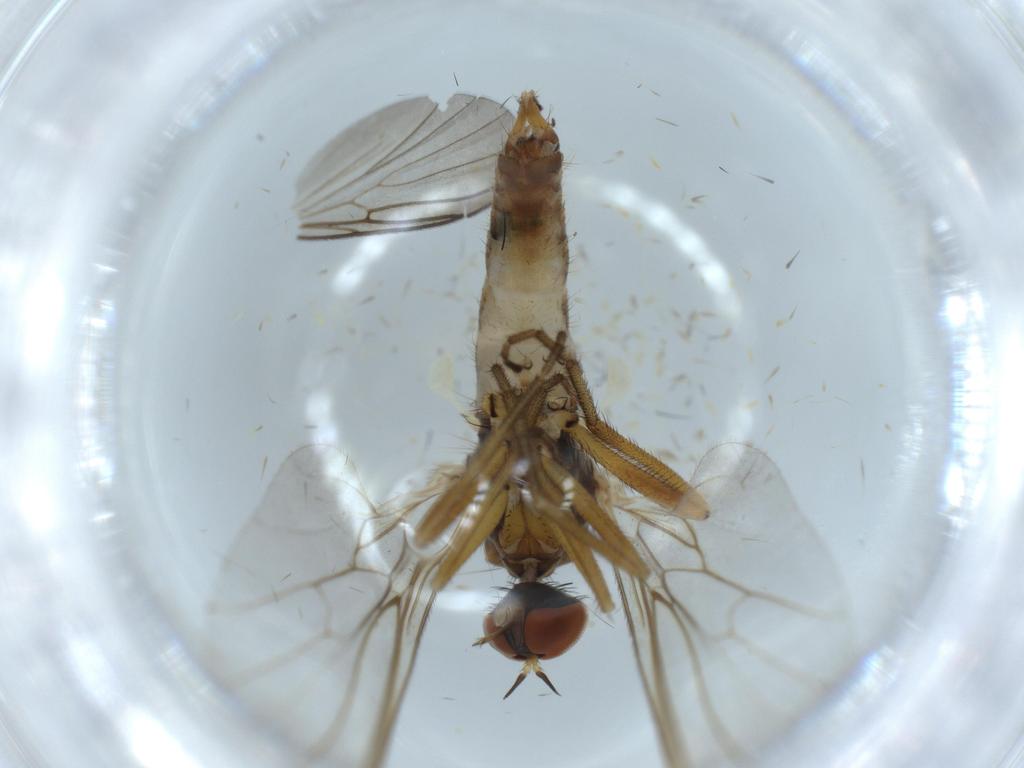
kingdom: Animalia
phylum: Arthropoda
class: Insecta
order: Diptera
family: Empididae
